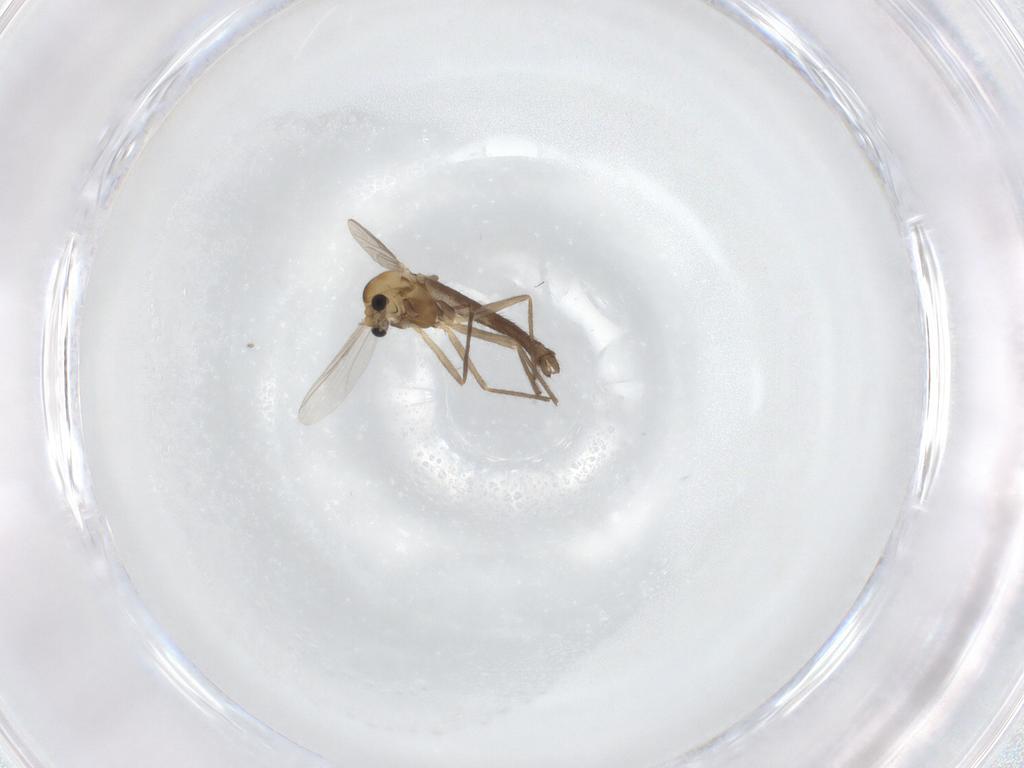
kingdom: Animalia
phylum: Arthropoda
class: Insecta
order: Diptera
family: Chironomidae
